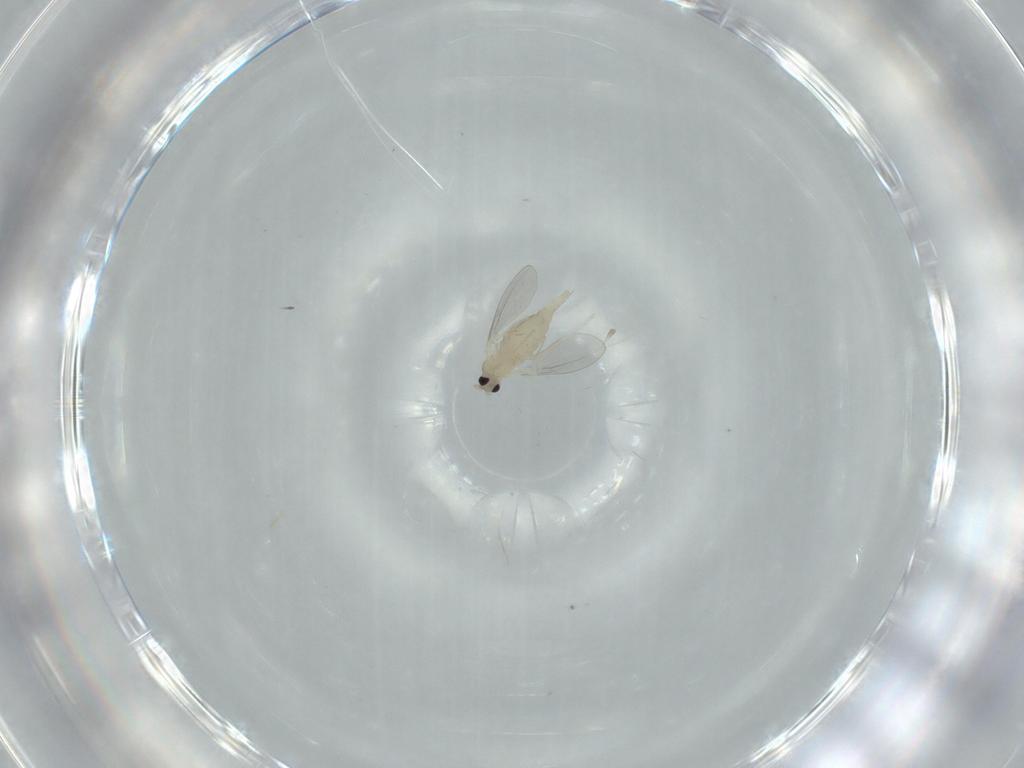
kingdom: Animalia
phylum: Arthropoda
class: Insecta
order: Diptera
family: Cecidomyiidae
